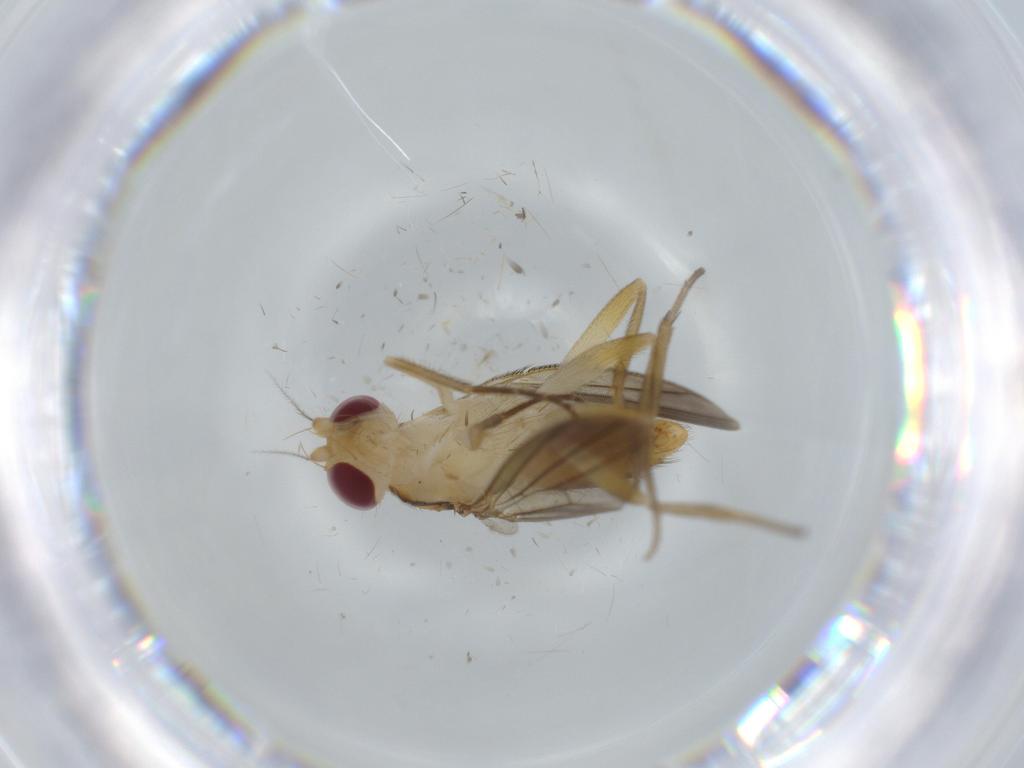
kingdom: Animalia
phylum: Arthropoda
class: Insecta
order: Diptera
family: Clusiidae
